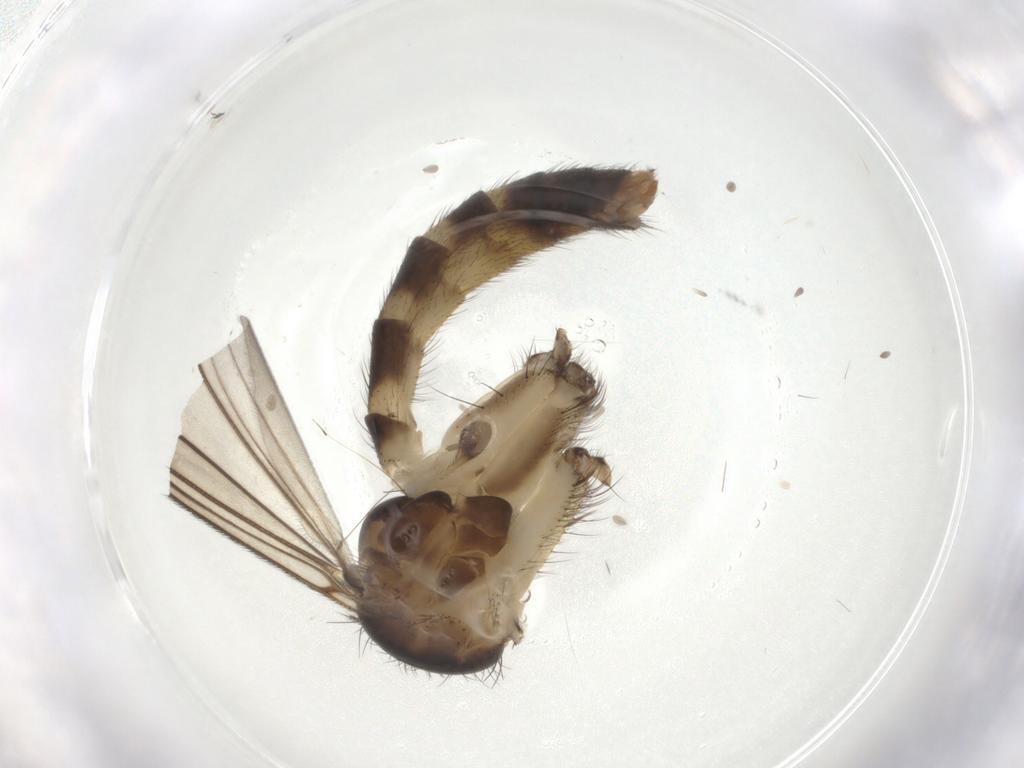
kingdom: Animalia
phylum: Arthropoda
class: Insecta
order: Diptera
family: Mycetophilidae
